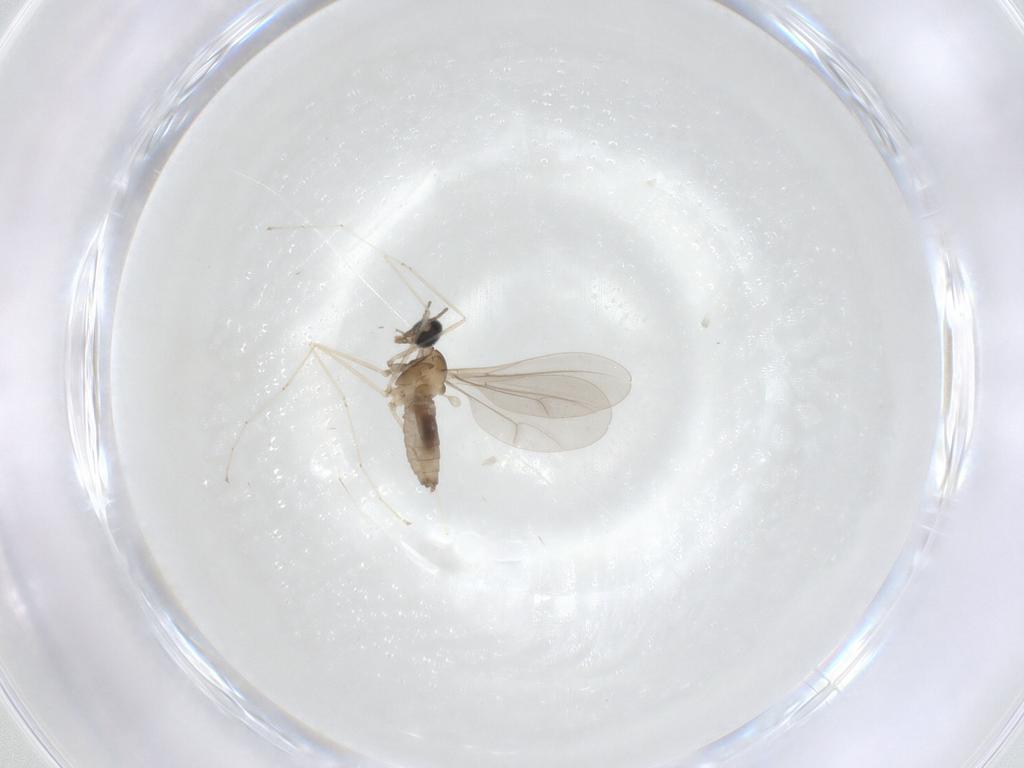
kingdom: Animalia
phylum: Arthropoda
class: Insecta
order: Diptera
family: Cecidomyiidae
